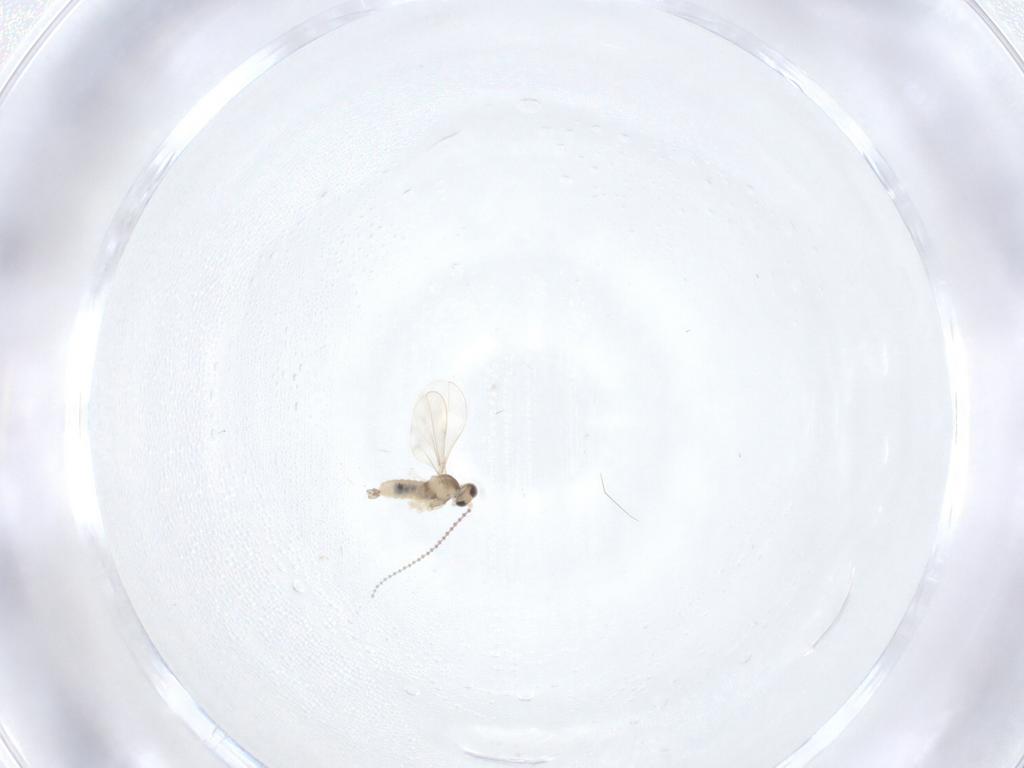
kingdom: Animalia
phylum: Arthropoda
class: Insecta
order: Diptera
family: Cecidomyiidae
